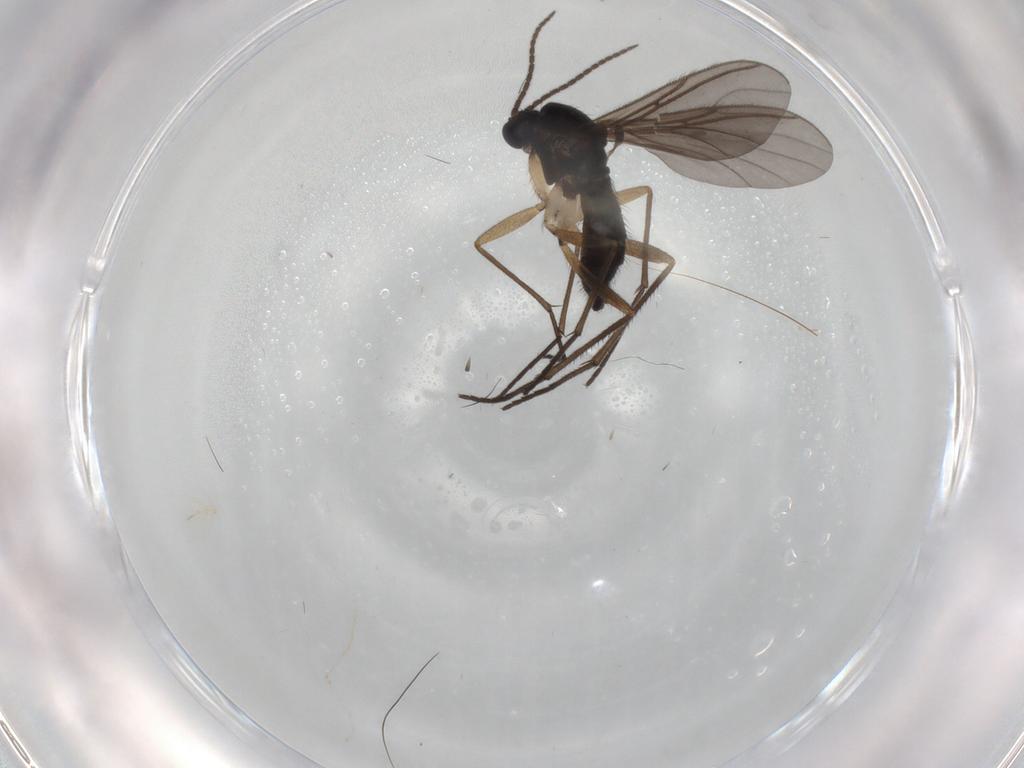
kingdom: Animalia
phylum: Arthropoda
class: Insecta
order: Diptera
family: Sciaridae
